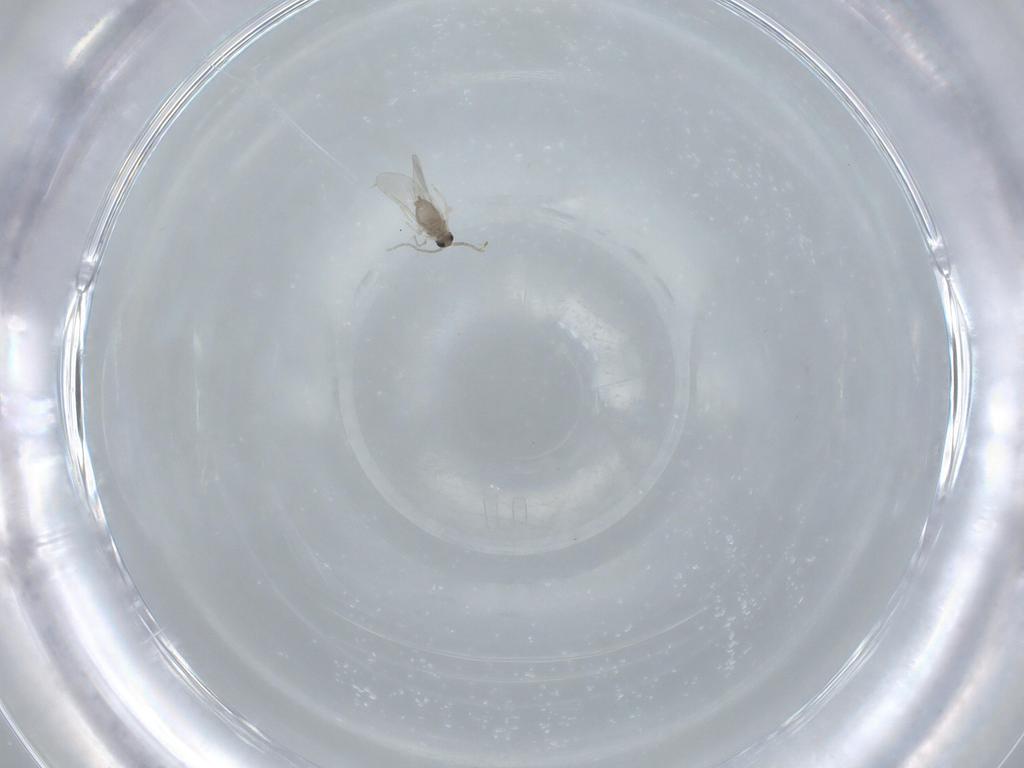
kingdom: Animalia
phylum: Arthropoda
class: Insecta
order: Diptera
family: Cecidomyiidae
